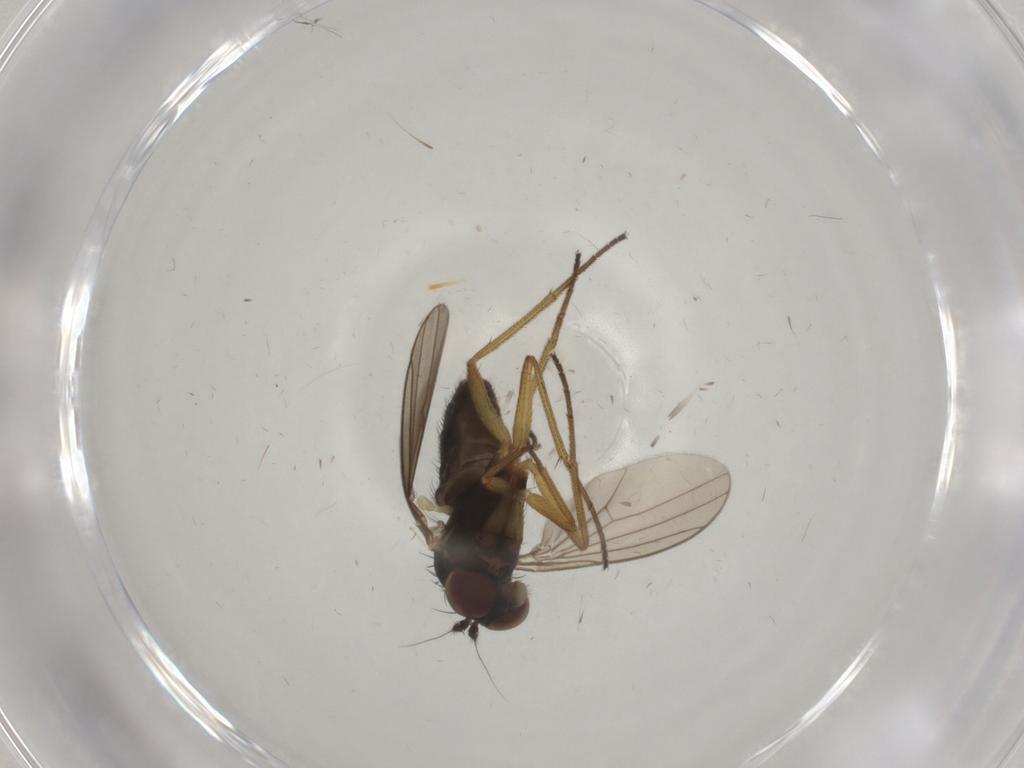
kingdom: Animalia
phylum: Arthropoda
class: Insecta
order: Diptera
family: Dolichopodidae
